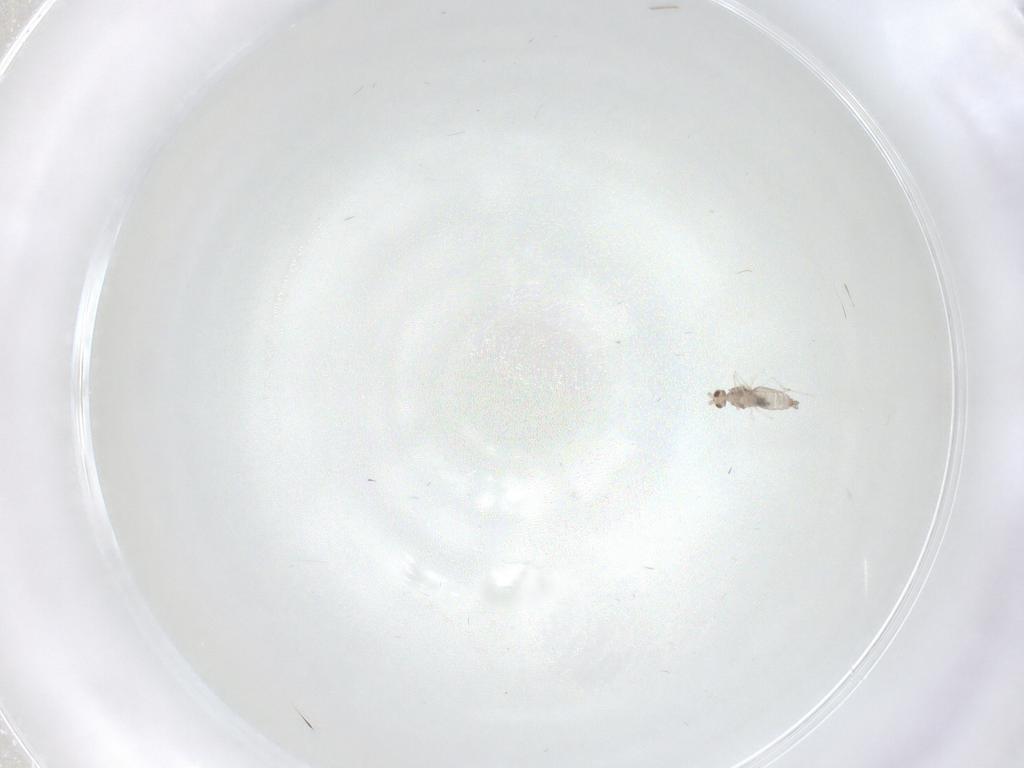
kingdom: Animalia
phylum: Arthropoda
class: Insecta
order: Diptera
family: Cecidomyiidae
